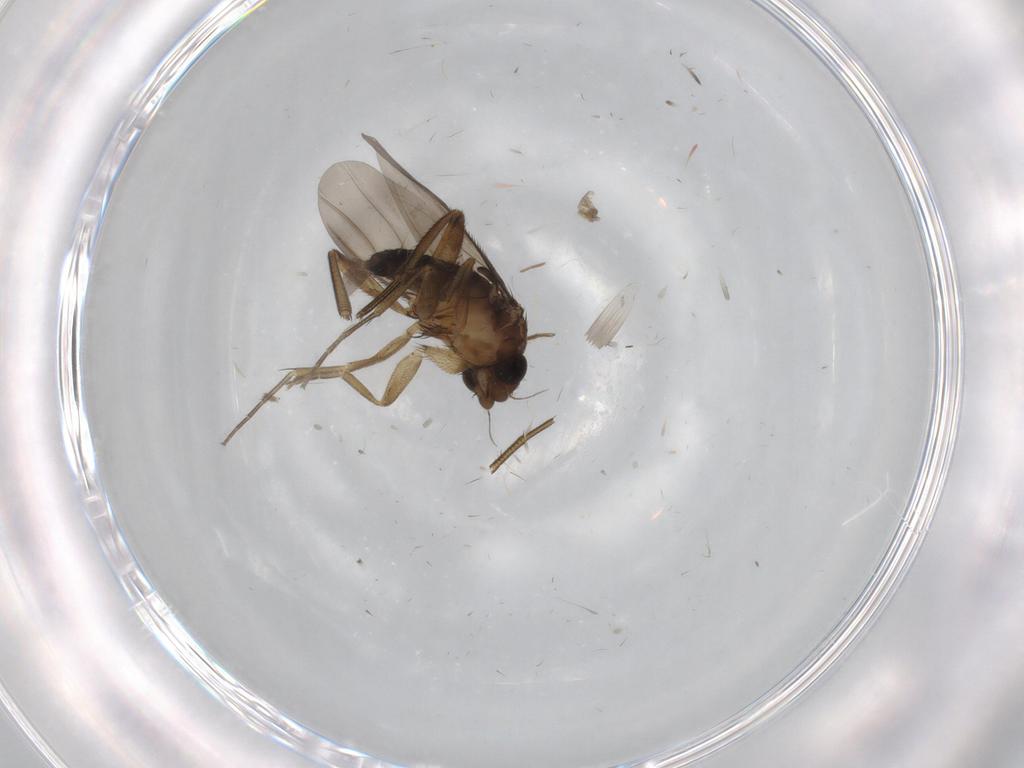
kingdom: Animalia
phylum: Arthropoda
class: Insecta
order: Diptera
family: Phoridae
